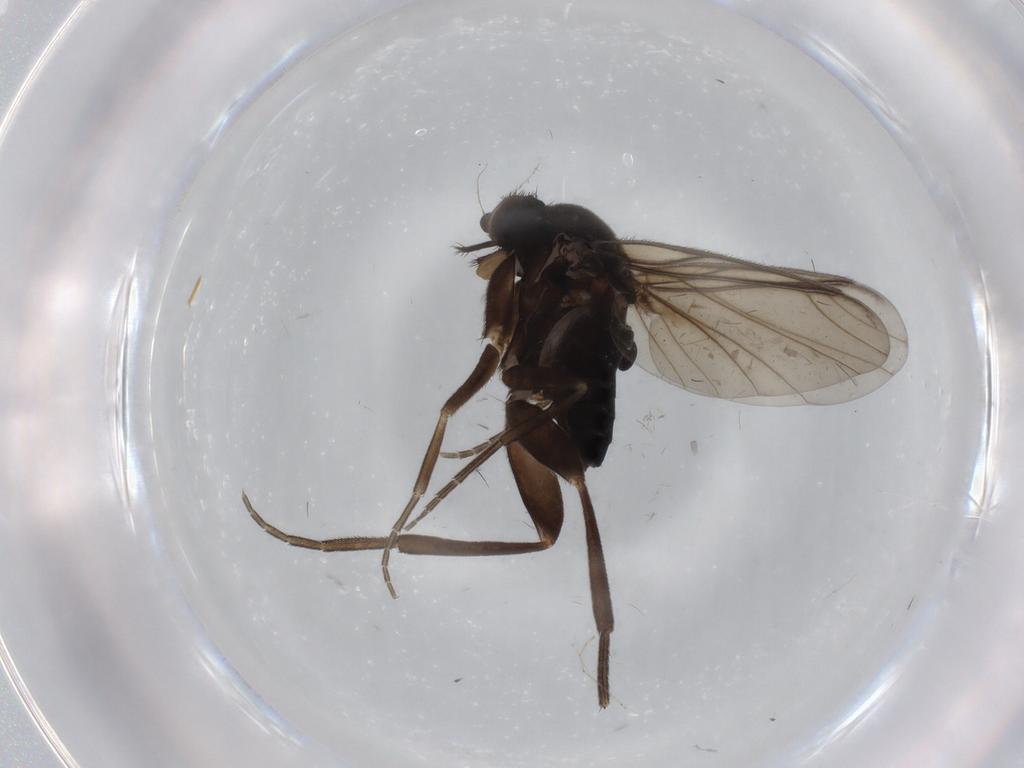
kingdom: Animalia
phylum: Arthropoda
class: Insecta
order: Diptera
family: Phoridae
